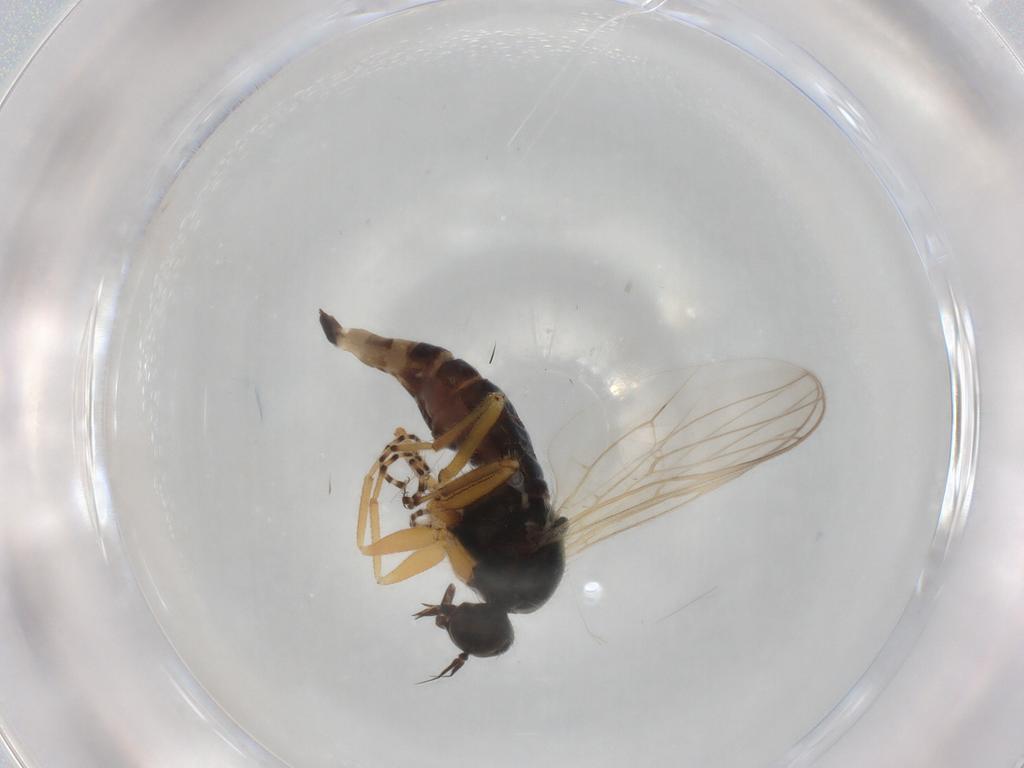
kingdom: Animalia
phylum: Arthropoda
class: Insecta
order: Diptera
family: Hybotidae
